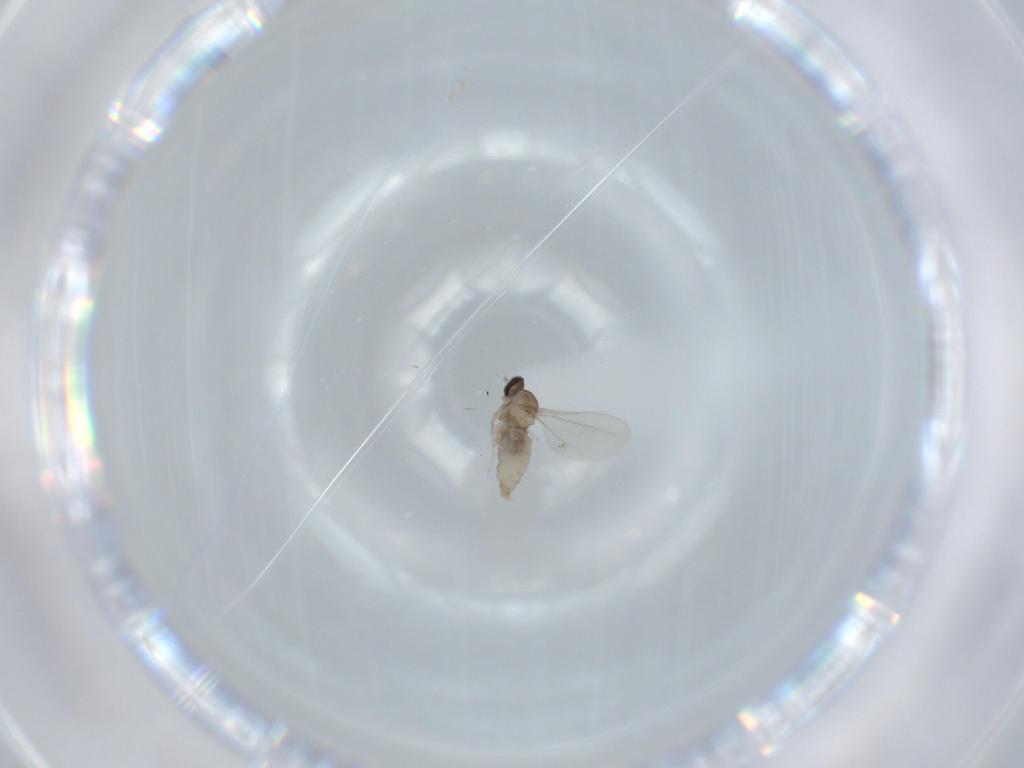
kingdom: Animalia
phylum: Arthropoda
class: Insecta
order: Diptera
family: Cecidomyiidae
